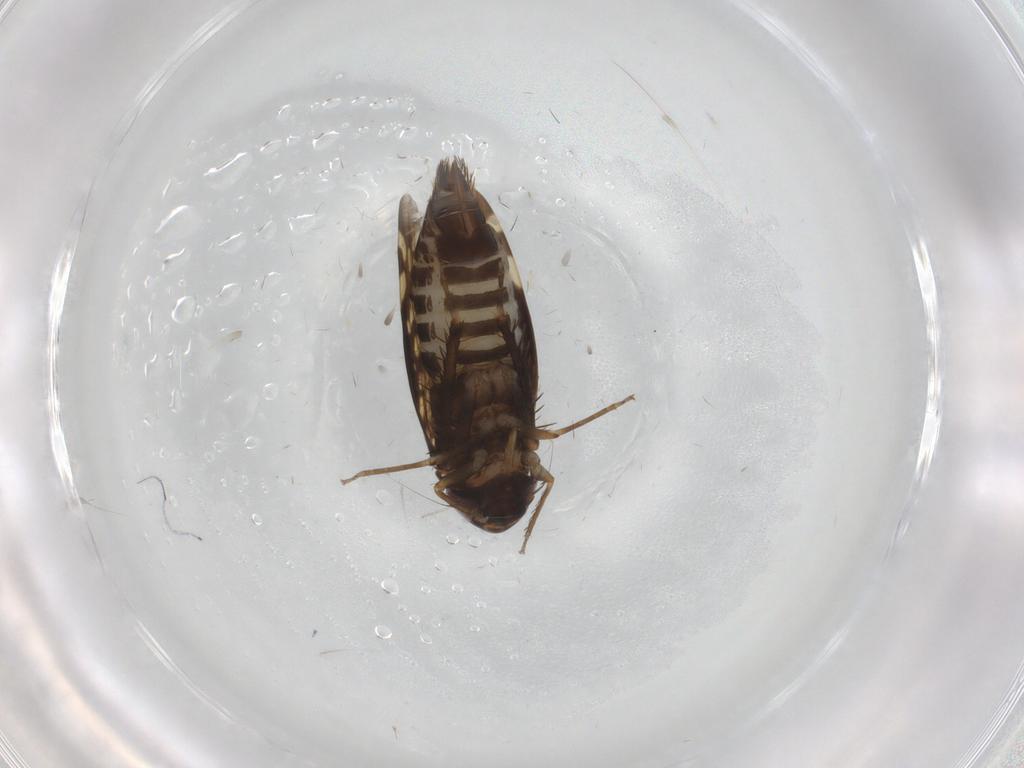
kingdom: Animalia
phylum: Arthropoda
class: Insecta
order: Hemiptera
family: Cicadellidae
